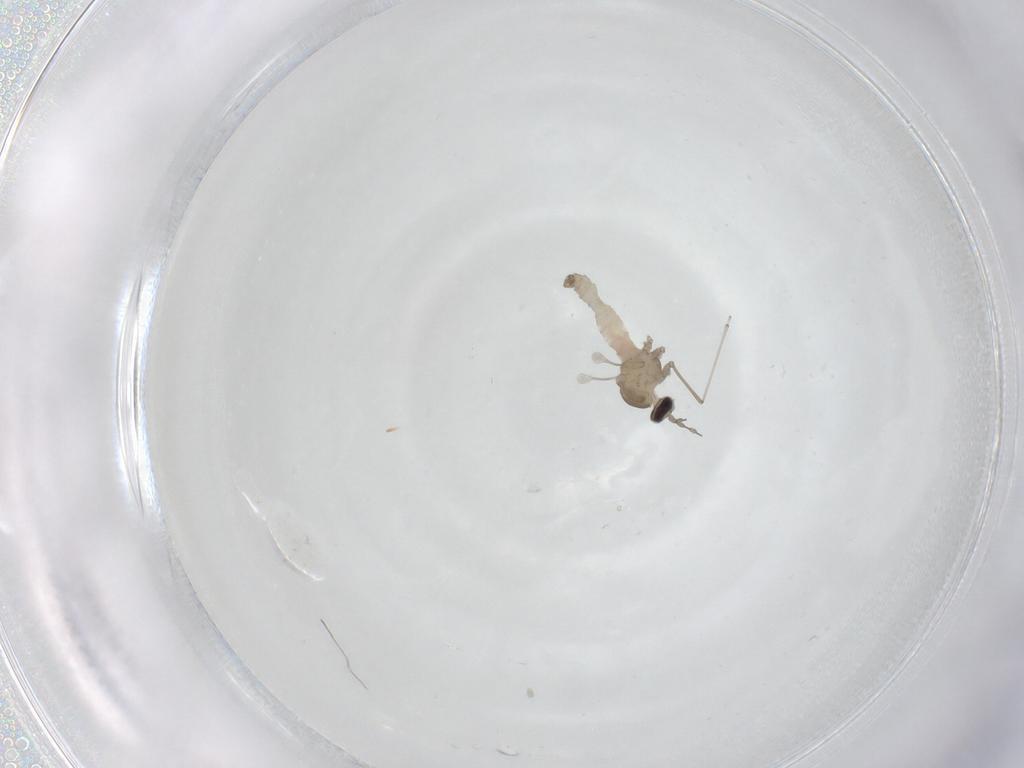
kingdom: Animalia
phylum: Arthropoda
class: Insecta
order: Diptera
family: Cecidomyiidae
